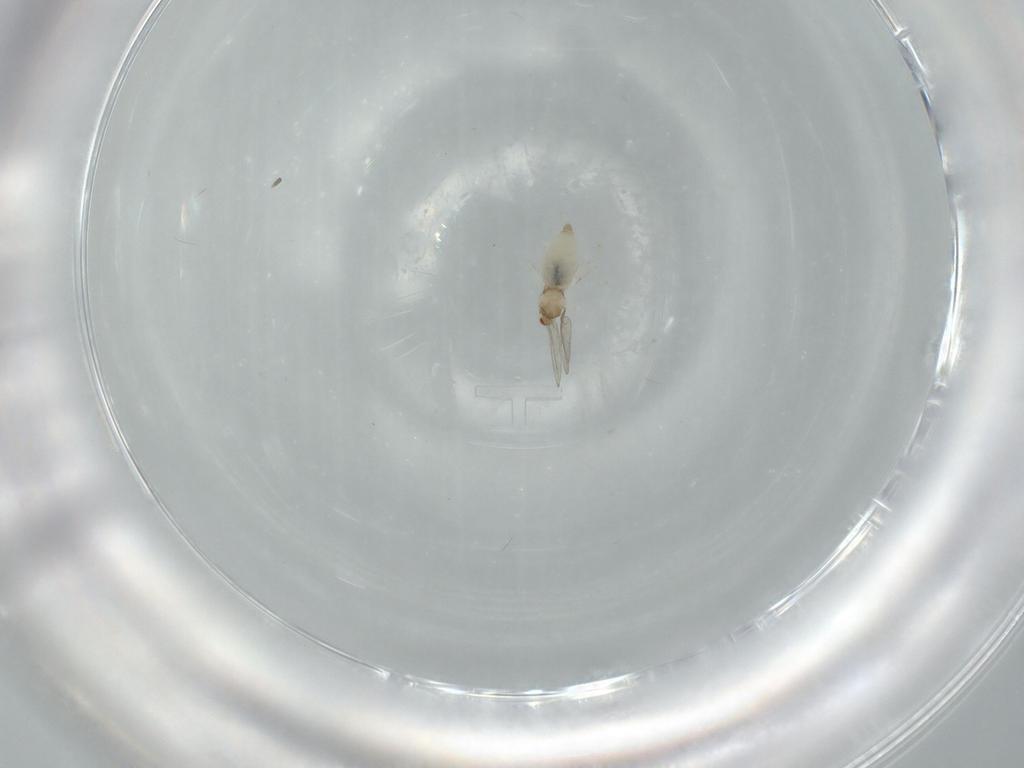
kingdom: Animalia
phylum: Arthropoda
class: Insecta
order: Diptera
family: Cecidomyiidae
